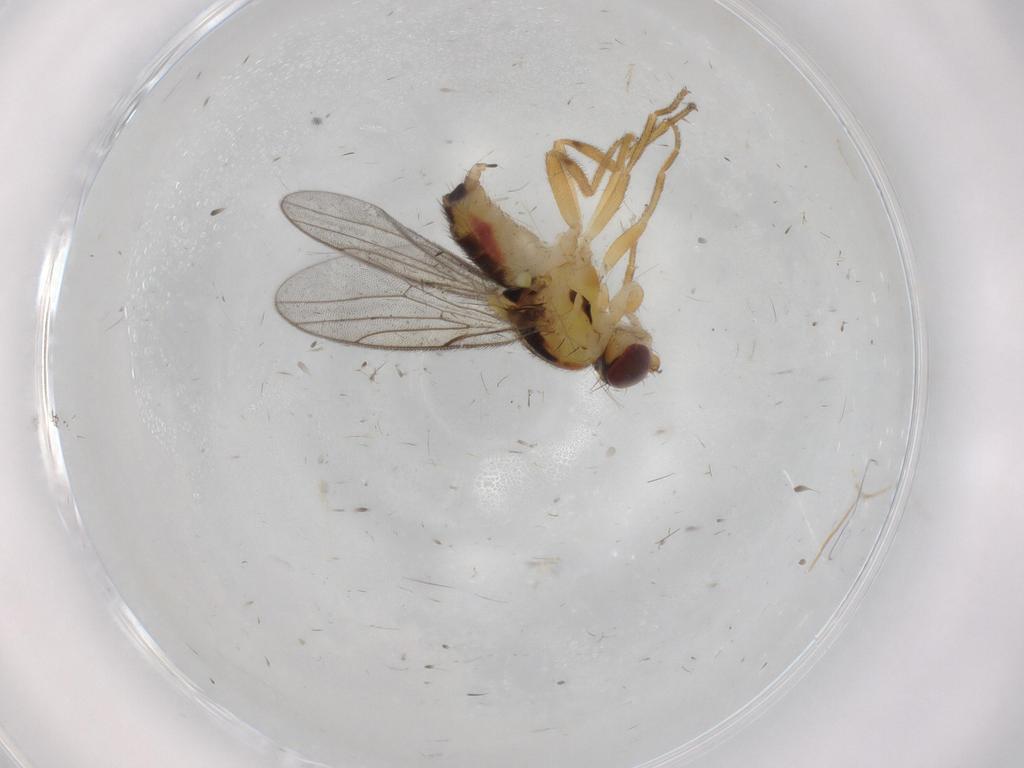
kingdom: Animalia
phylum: Arthropoda
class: Insecta
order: Diptera
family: Chloropidae
